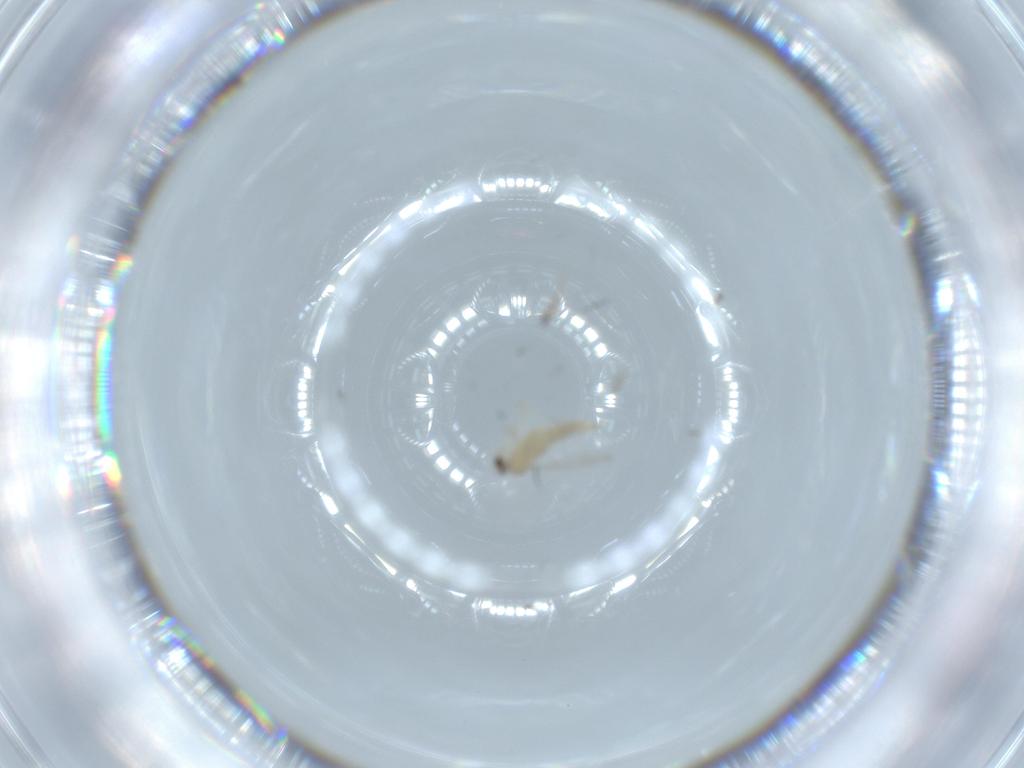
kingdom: Animalia
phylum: Arthropoda
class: Insecta
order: Diptera
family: Cecidomyiidae
